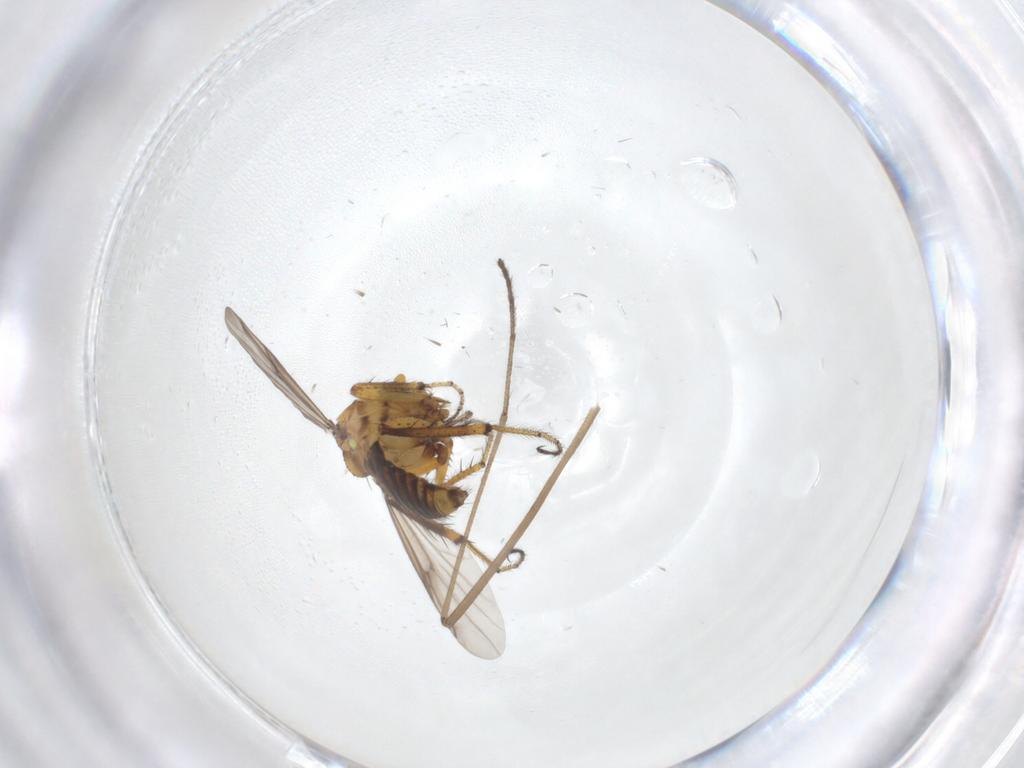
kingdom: Animalia
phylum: Arthropoda
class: Insecta
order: Diptera
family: Ceratopogonidae
